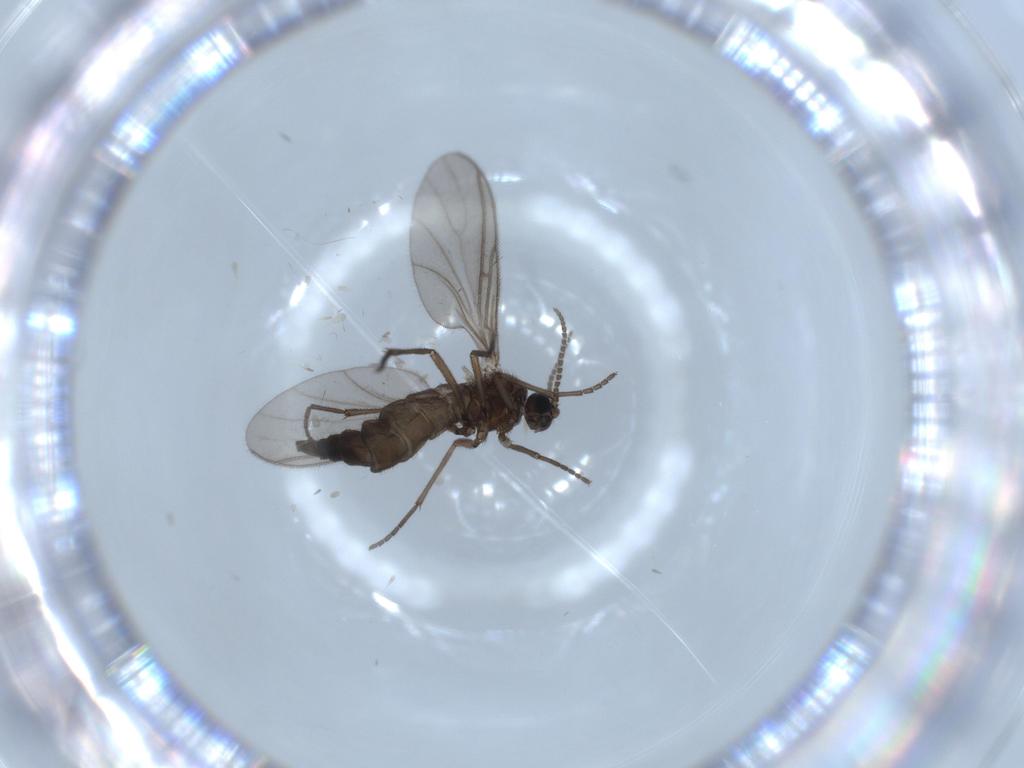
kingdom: Animalia
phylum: Arthropoda
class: Insecta
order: Diptera
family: Sciaridae
